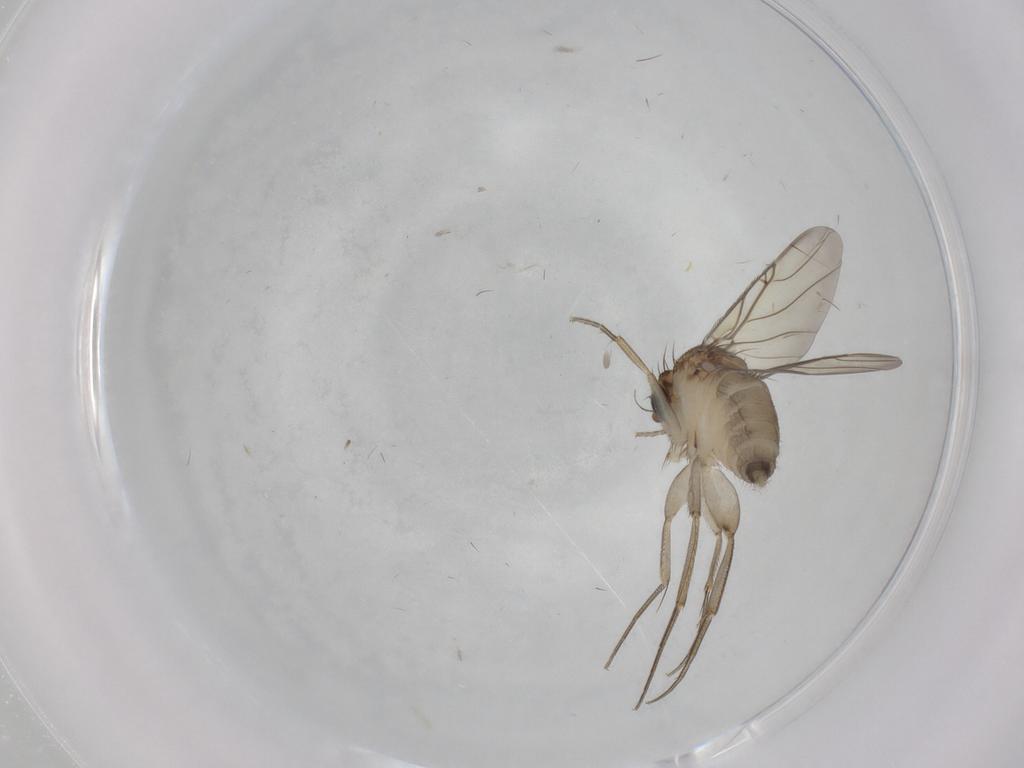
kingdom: Animalia
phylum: Arthropoda
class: Insecta
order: Diptera
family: Phoridae
